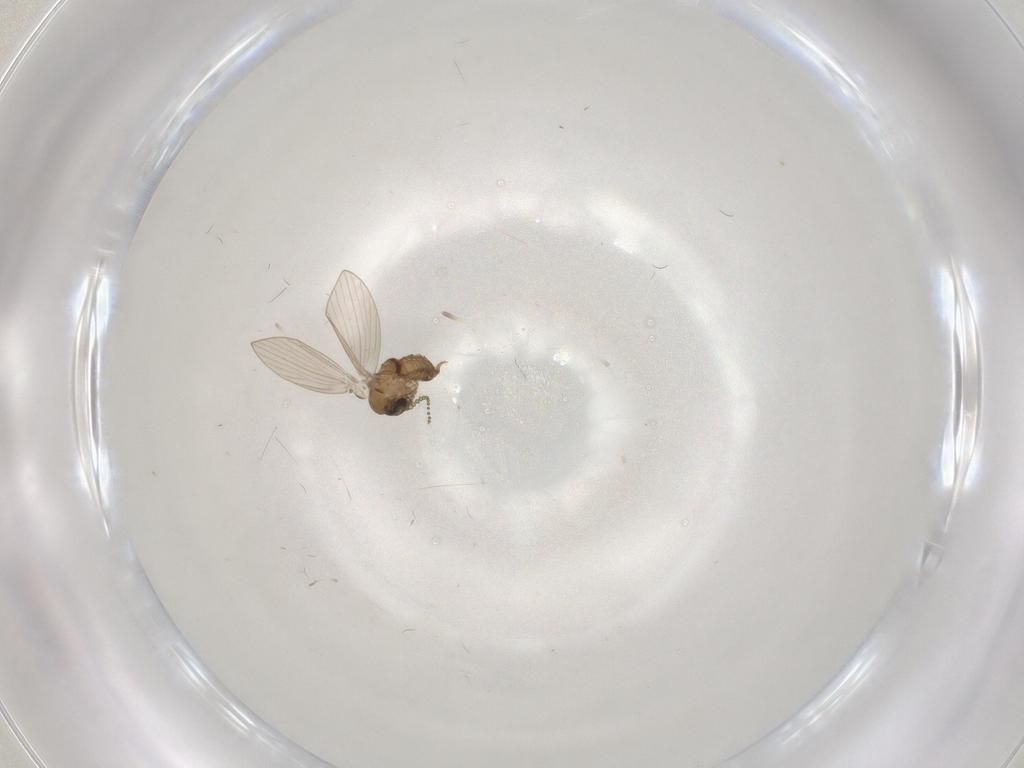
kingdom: Animalia
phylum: Arthropoda
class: Insecta
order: Diptera
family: Psychodidae
